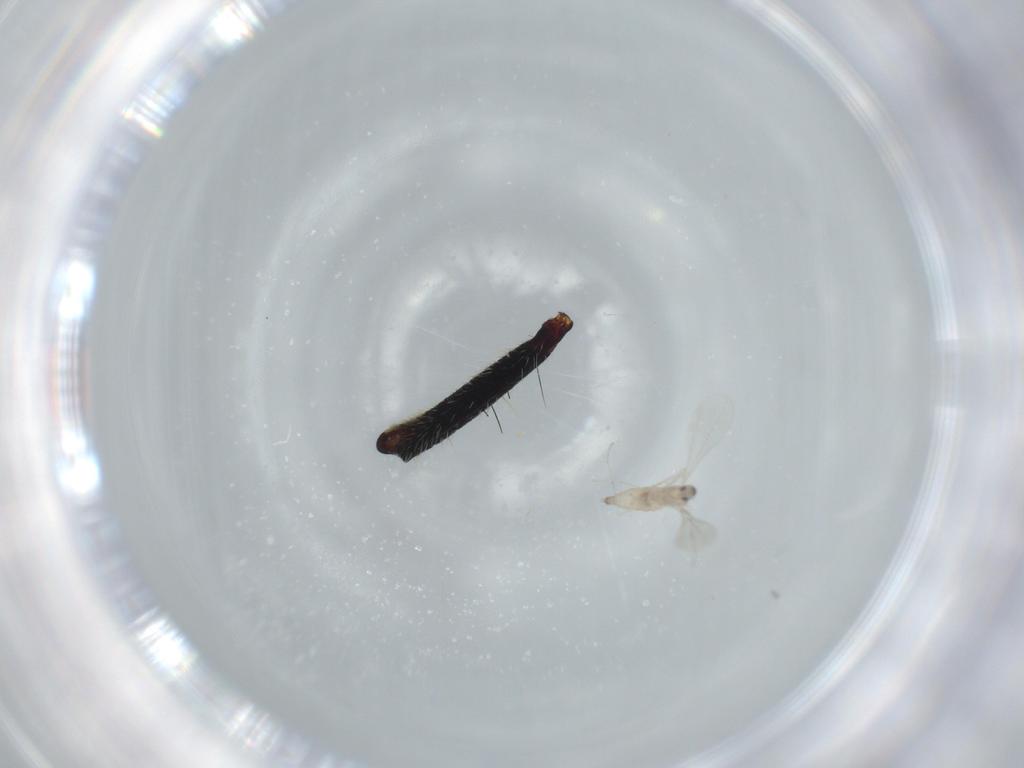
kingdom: Animalia
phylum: Arthropoda
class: Insecta
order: Diptera
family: Cecidomyiidae
